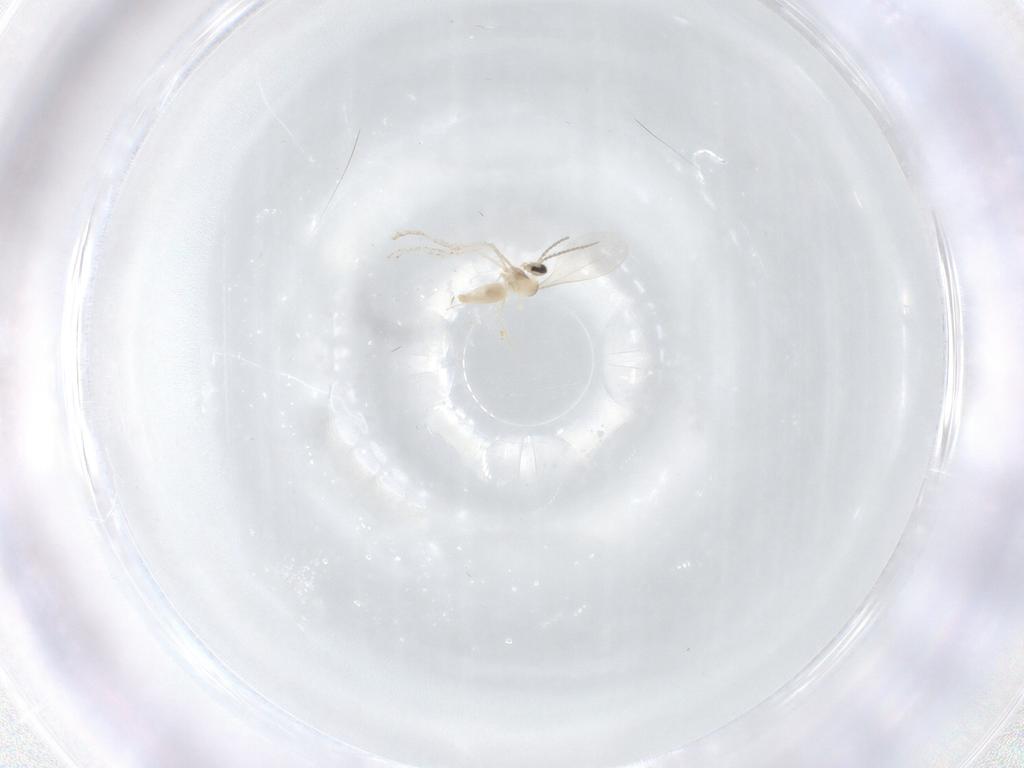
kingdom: Animalia
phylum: Arthropoda
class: Insecta
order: Diptera
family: Cecidomyiidae
